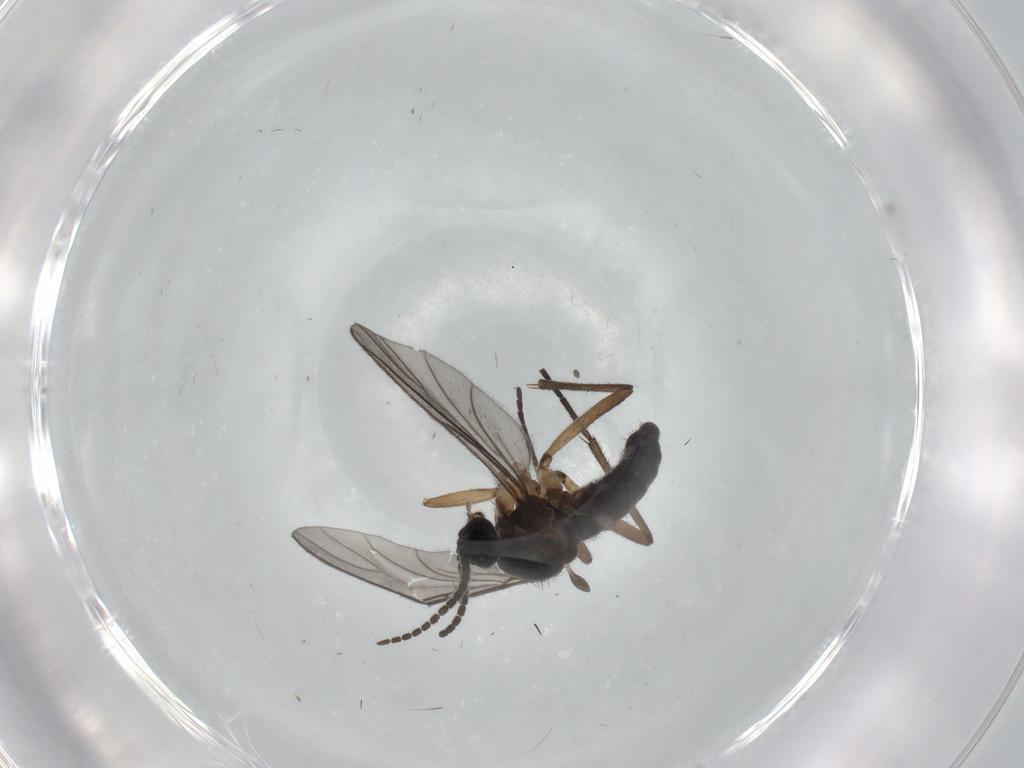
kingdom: Animalia
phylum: Arthropoda
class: Insecta
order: Diptera
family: Sciaridae
